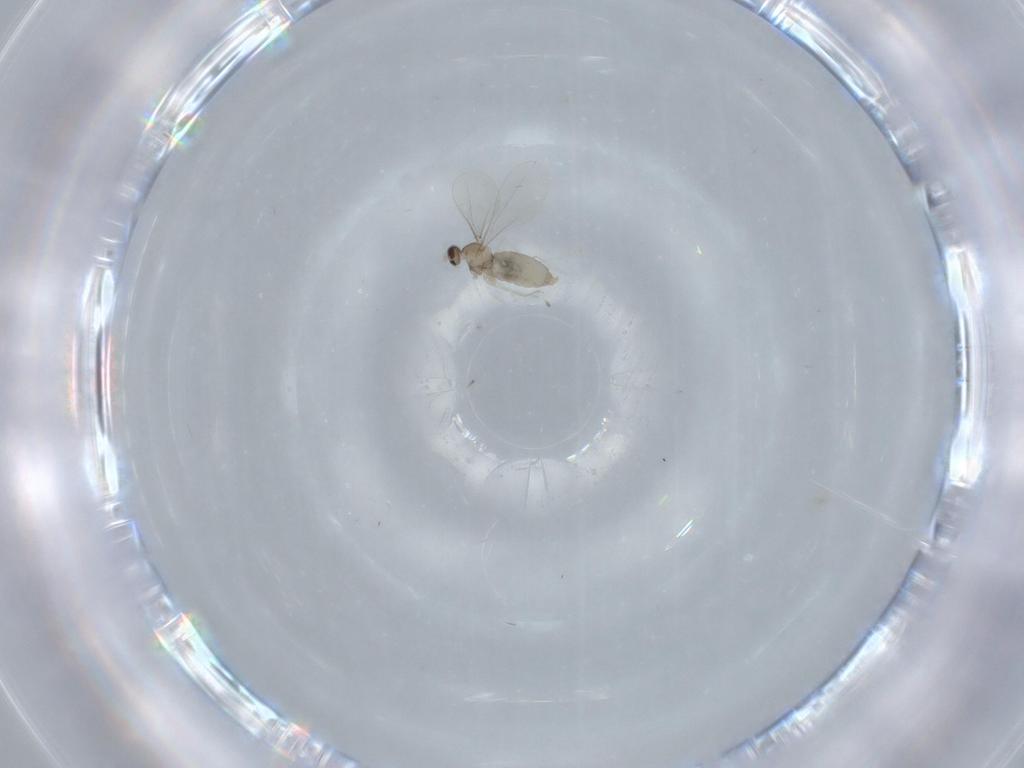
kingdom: Animalia
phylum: Arthropoda
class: Insecta
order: Diptera
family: Cecidomyiidae
